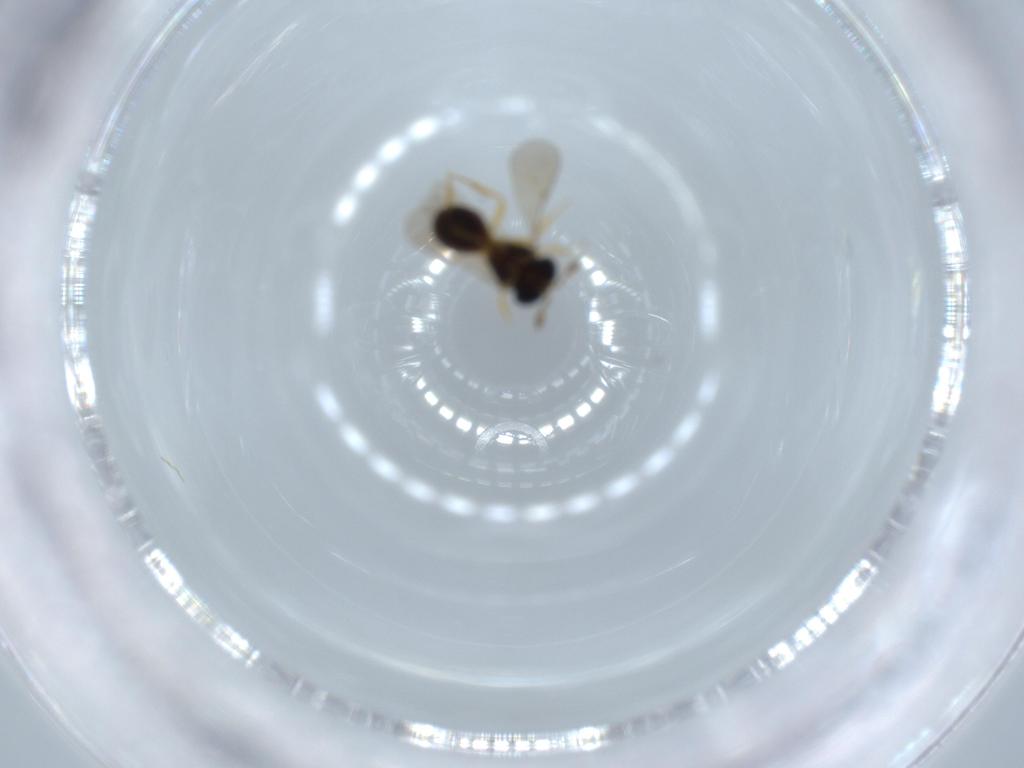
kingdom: Animalia
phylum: Arthropoda
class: Insecta
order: Hymenoptera
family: Scelionidae
